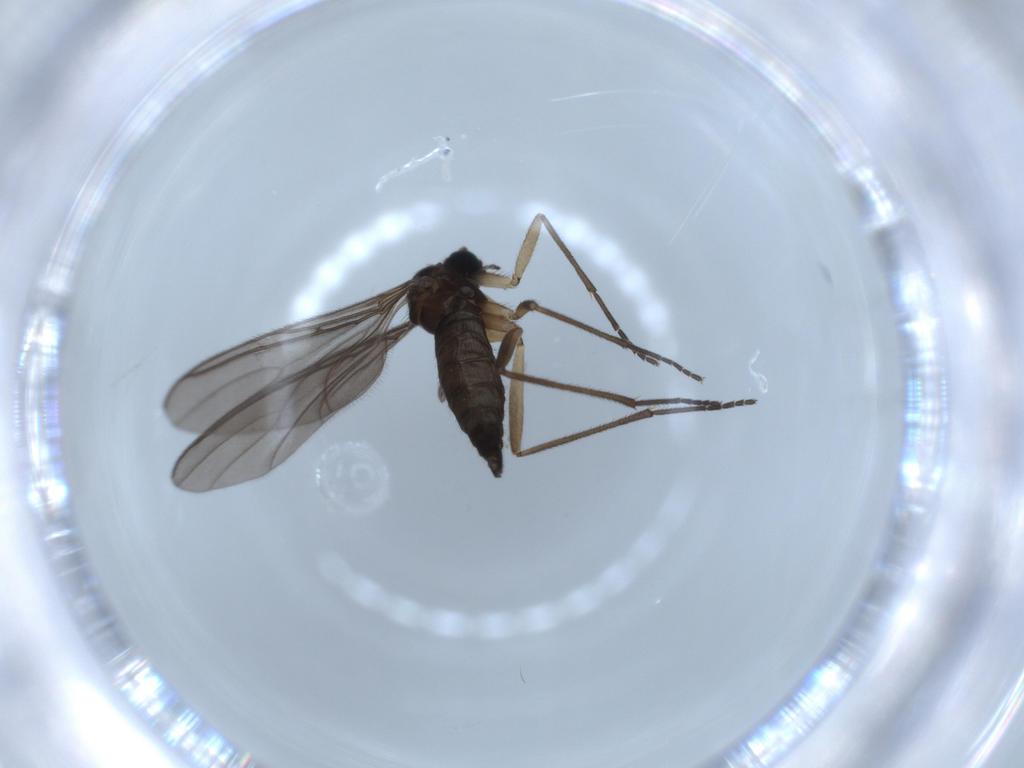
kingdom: Animalia
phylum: Arthropoda
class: Insecta
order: Diptera
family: Sciaridae
